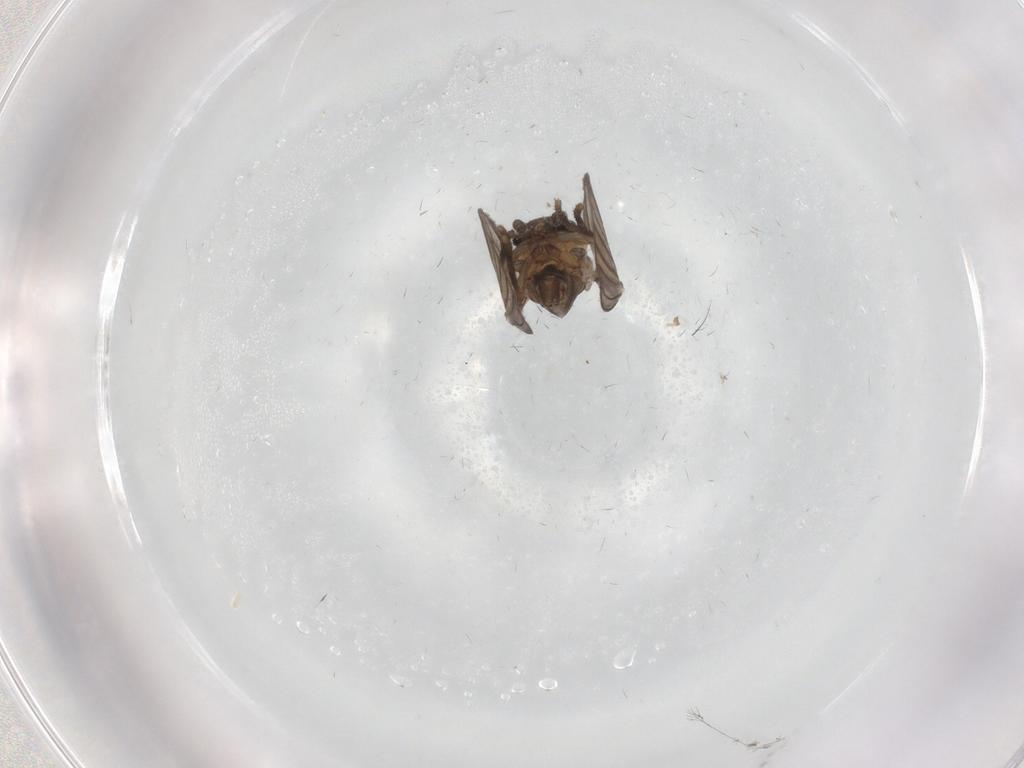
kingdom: Animalia
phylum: Arthropoda
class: Insecta
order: Diptera
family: Psychodidae
